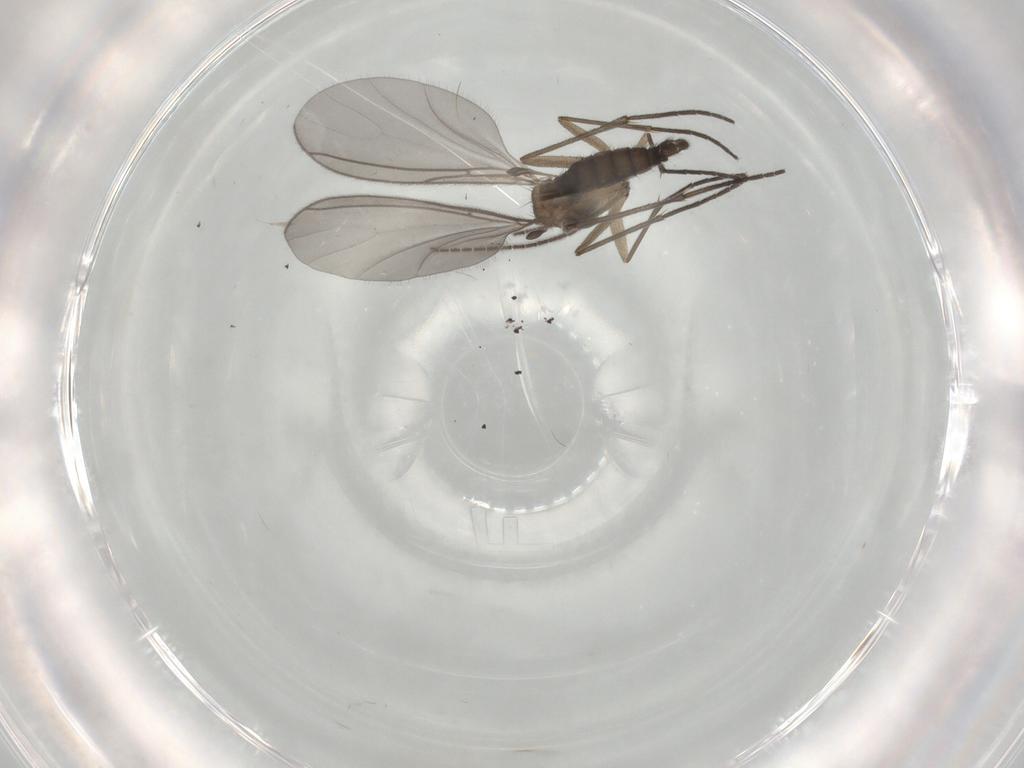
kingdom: Animalia
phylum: Arthropoda
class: Insecta
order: Diptera
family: Sciaridae
